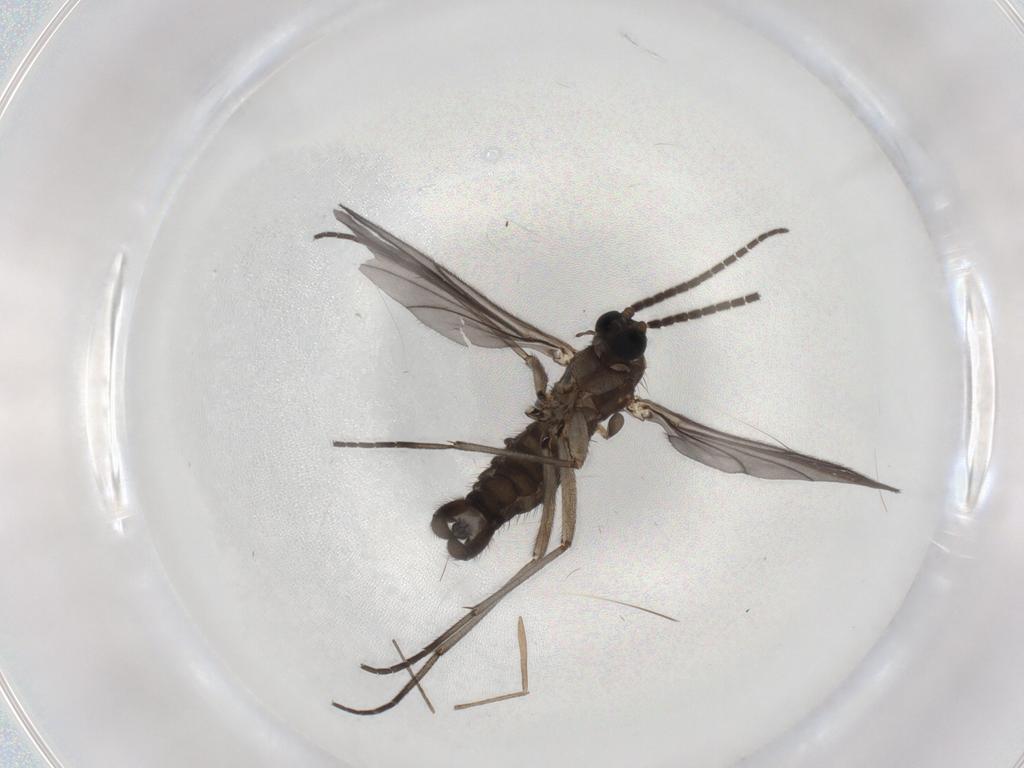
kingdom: Animalia
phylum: Arthropoda
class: Insecta
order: Diptera
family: Sciaridae
